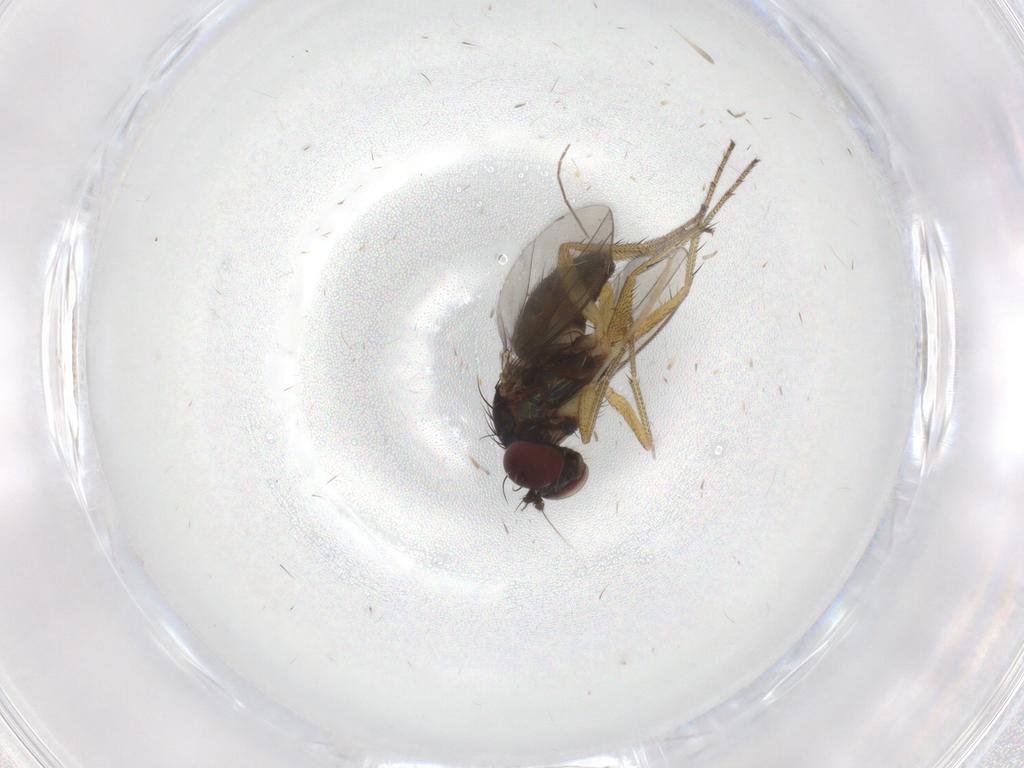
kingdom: Animalia
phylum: Arthropoda
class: Insecta
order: Diptera
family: Dolichopodidae
